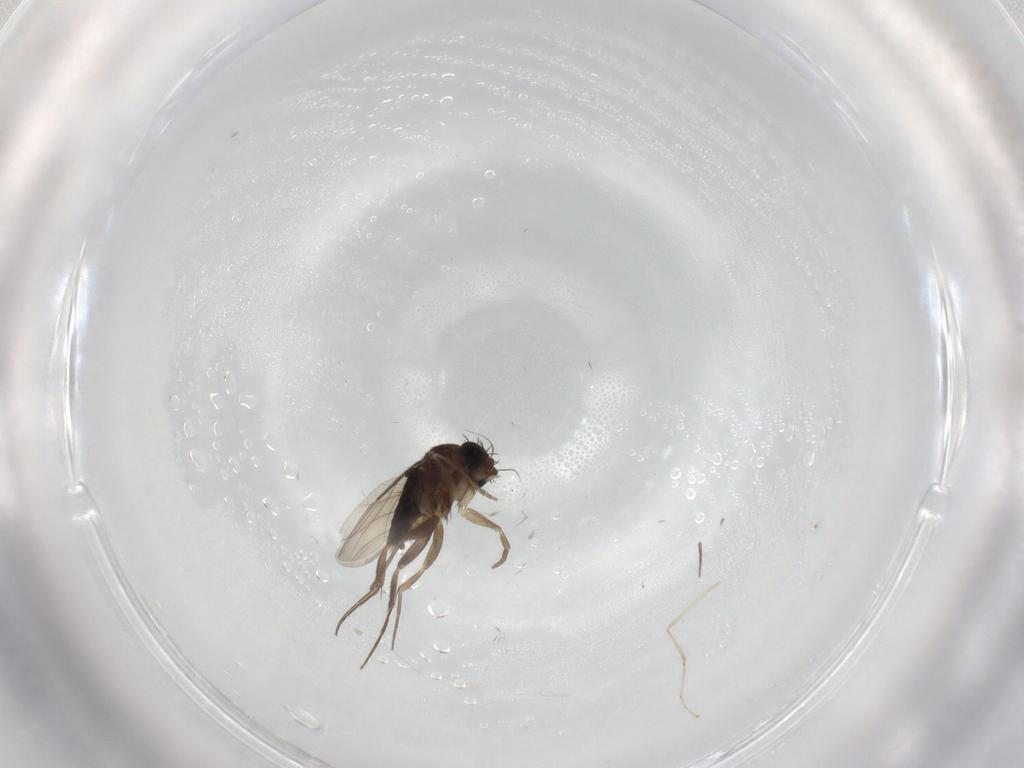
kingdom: Animalia
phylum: Arthropoda
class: Insecta
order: Diptera
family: Phoridae
